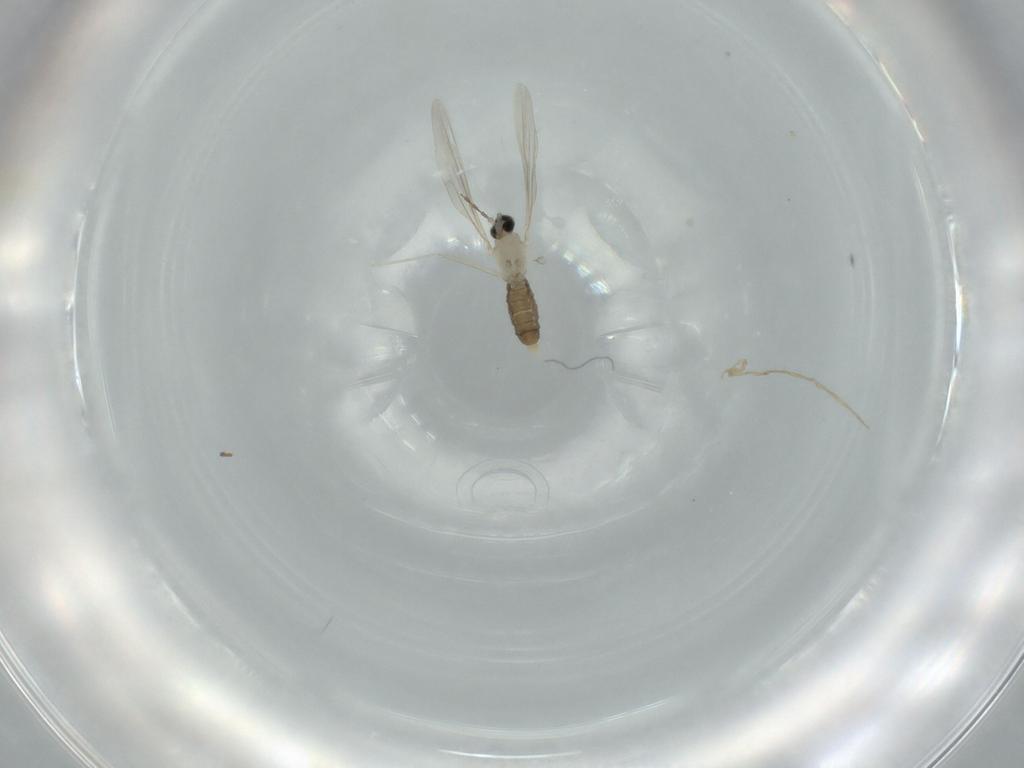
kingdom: Animalia
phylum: Arthropoda
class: Insecta
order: Diptera
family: Cecidomyiidae
